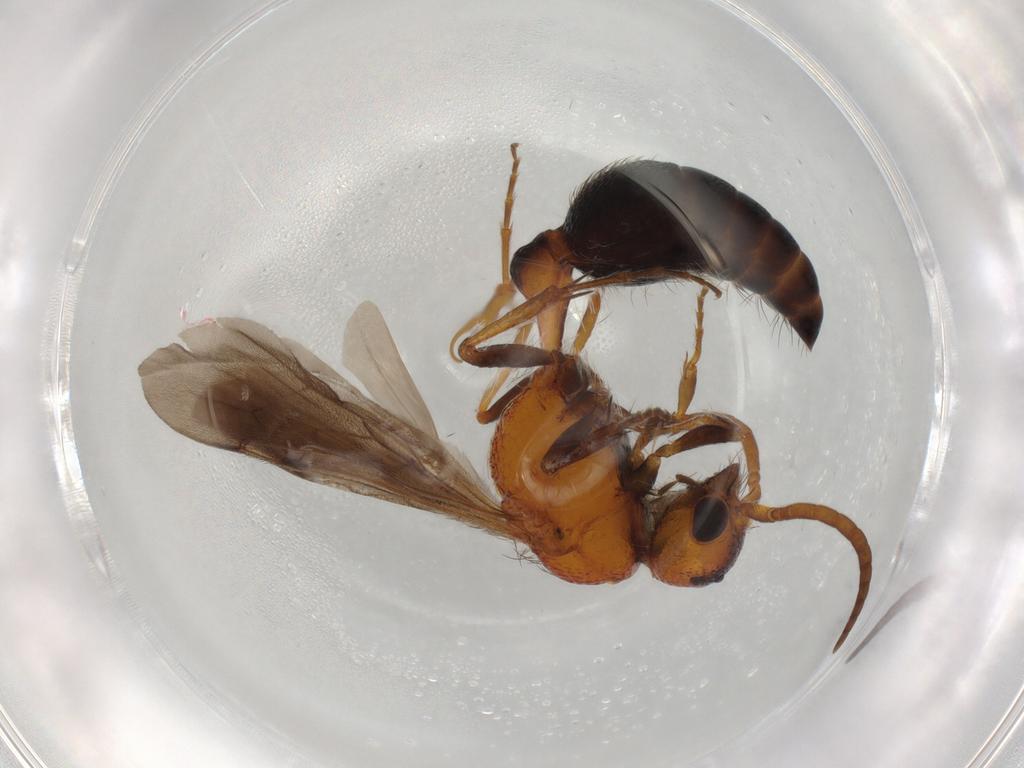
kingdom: Animalia
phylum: Arthropoda
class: Insecta
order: Hymenoptera
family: Mutillidae
